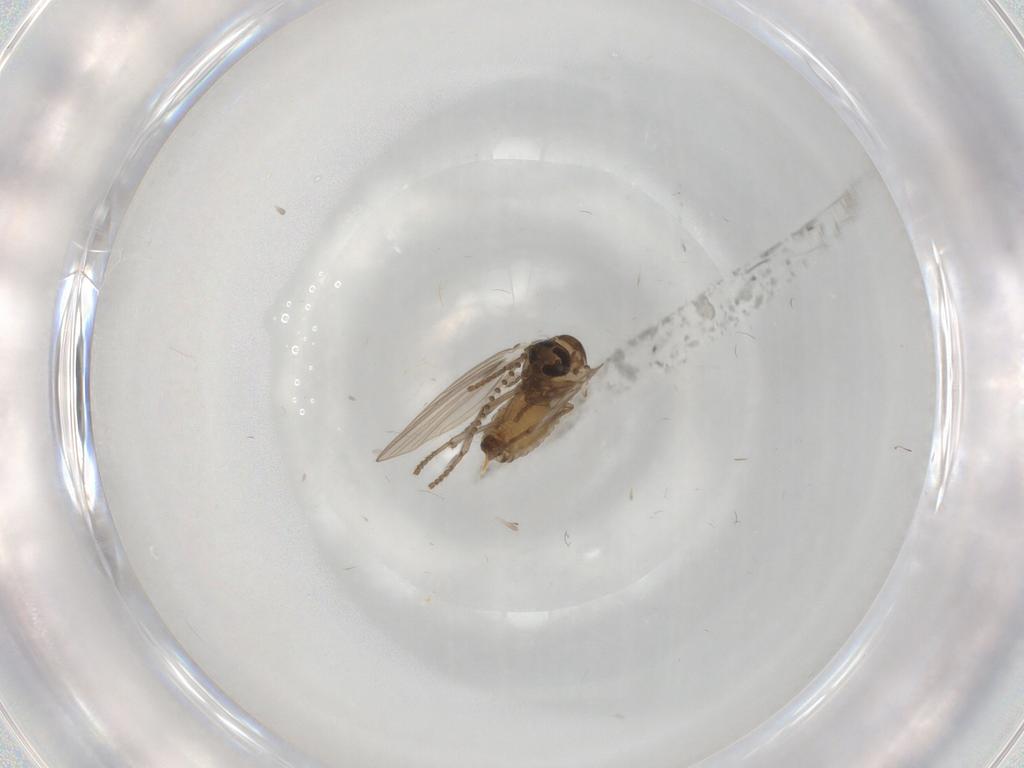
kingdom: Animalia
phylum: Arthropoda
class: Insecta
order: Diptera
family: Psychodidae
